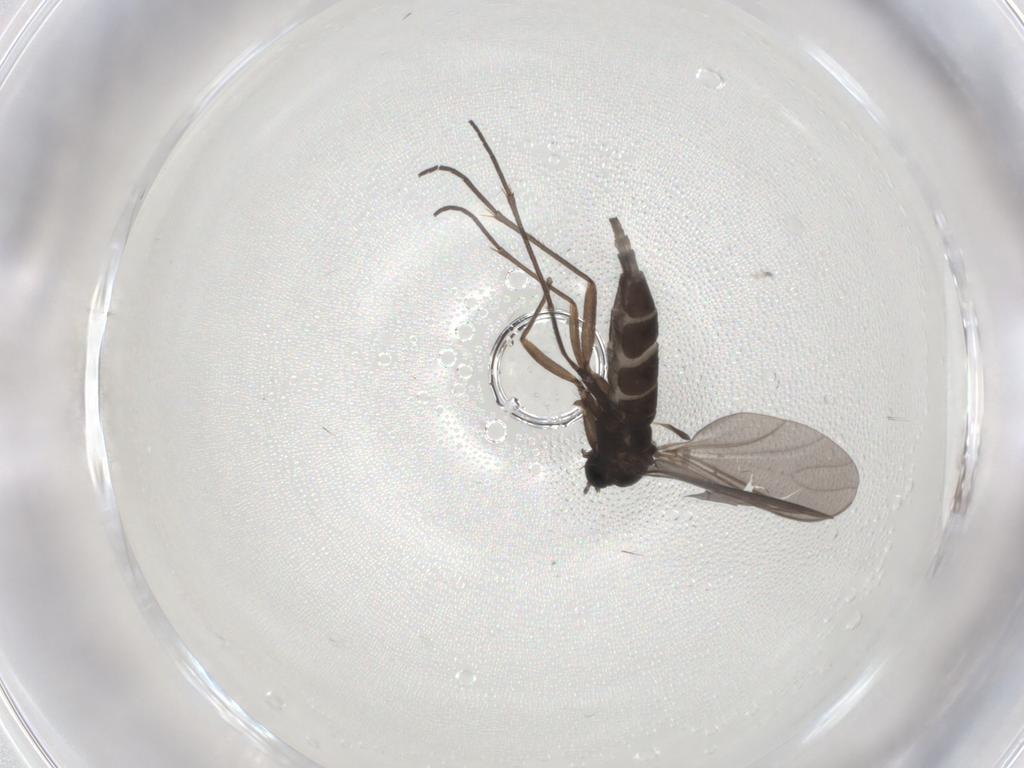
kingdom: Animalia
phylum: Arthropoda
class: Insecta
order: Diptera
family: Sciaridae
